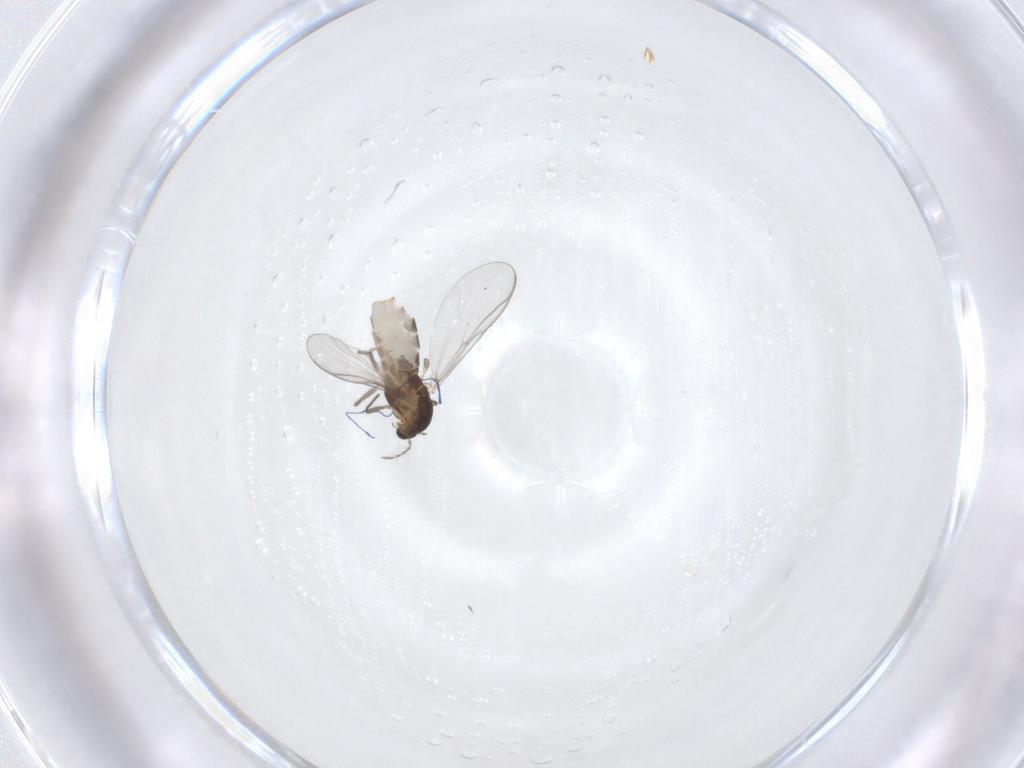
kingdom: Animalia
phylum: Arthropoda
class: Insecta
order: Diptera
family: Chironomidae
